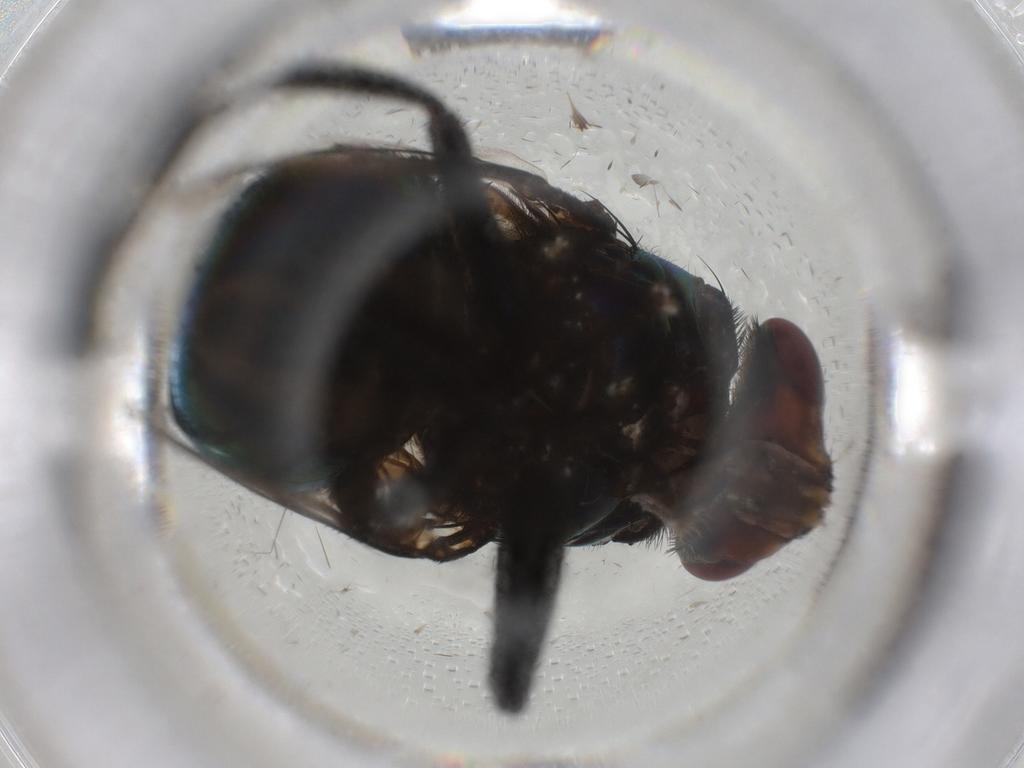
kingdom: Animalia
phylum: Arthropoda
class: Insecta
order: Diptera
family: Muscidae
